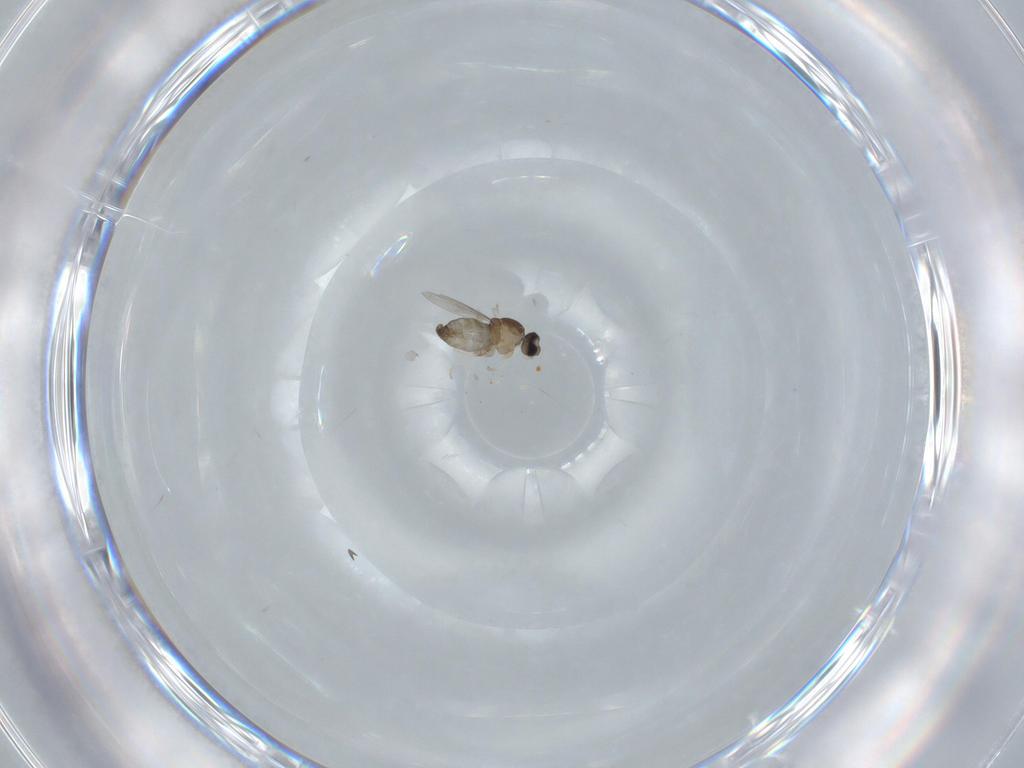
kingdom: Animalia
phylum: Arthropoda
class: Insecta
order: Diptera
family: Cecidomyiidae
